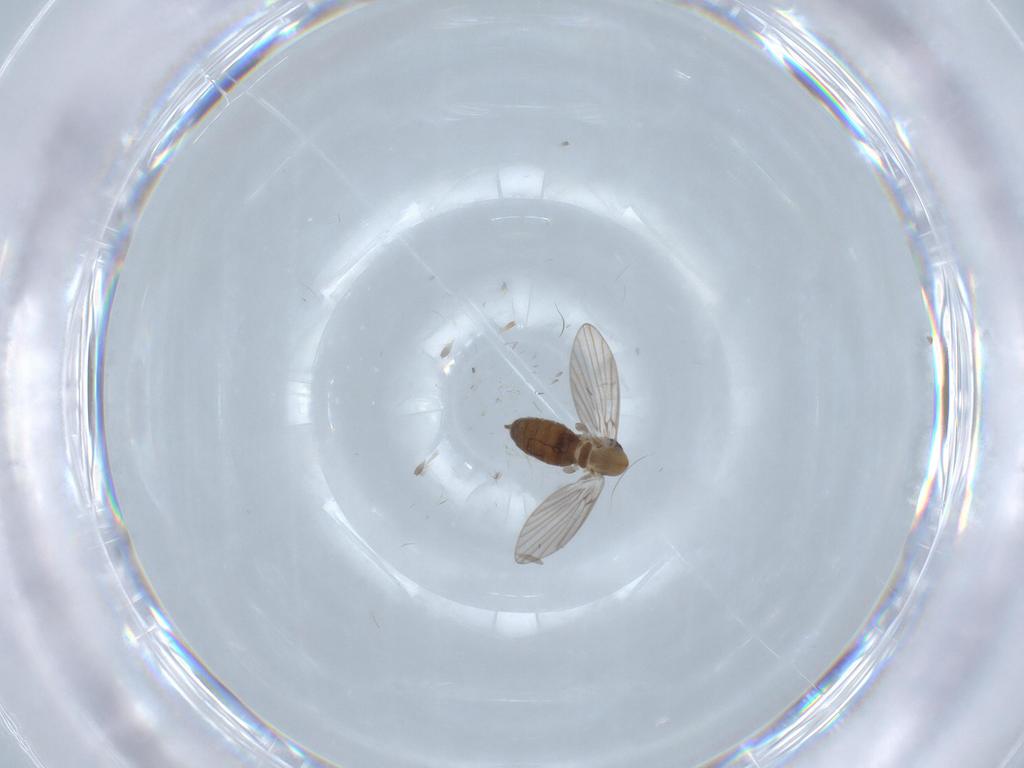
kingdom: Animalia
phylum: Arthropoda
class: Insecta
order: Diptera
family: Psychodidae
